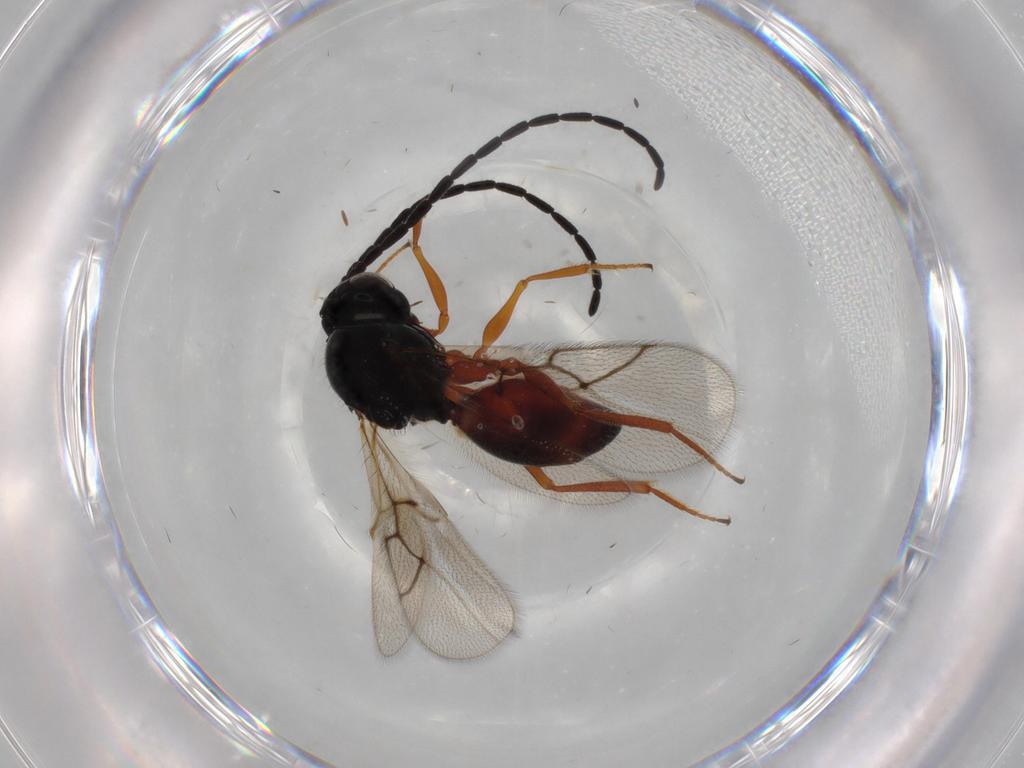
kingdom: Animalia
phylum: Arthropoda
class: Insecta
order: Hymenoptera
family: Figitidae
